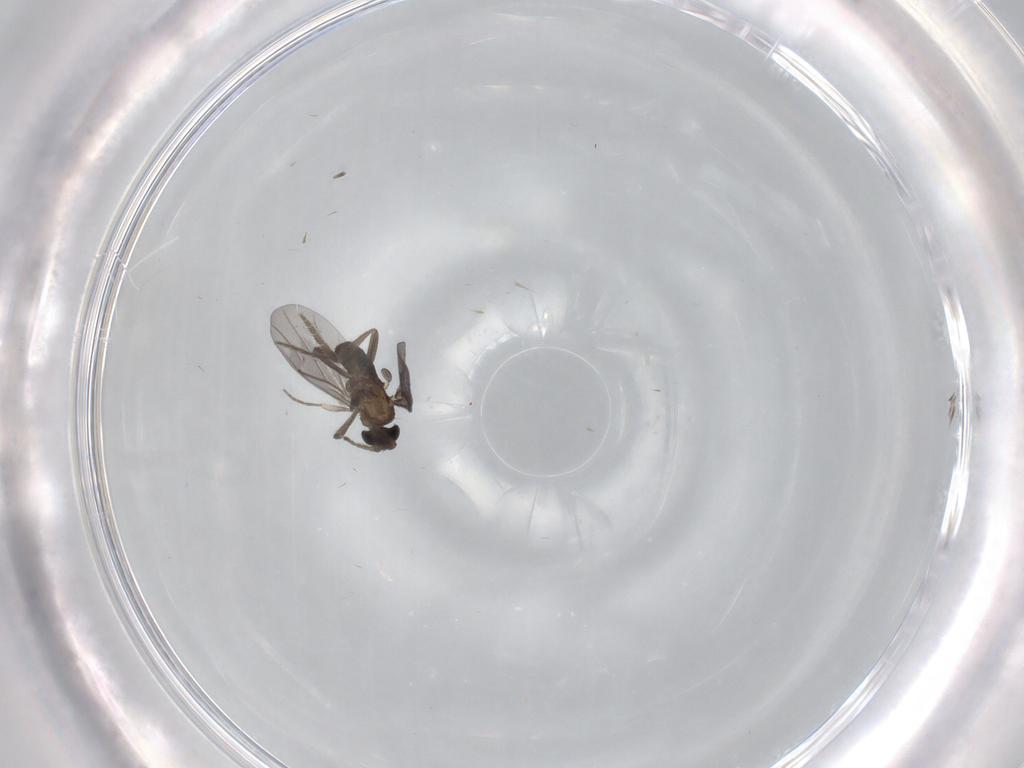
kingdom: Animalia
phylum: Arthropoda
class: Insecta
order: Diptera
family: Phoridae
